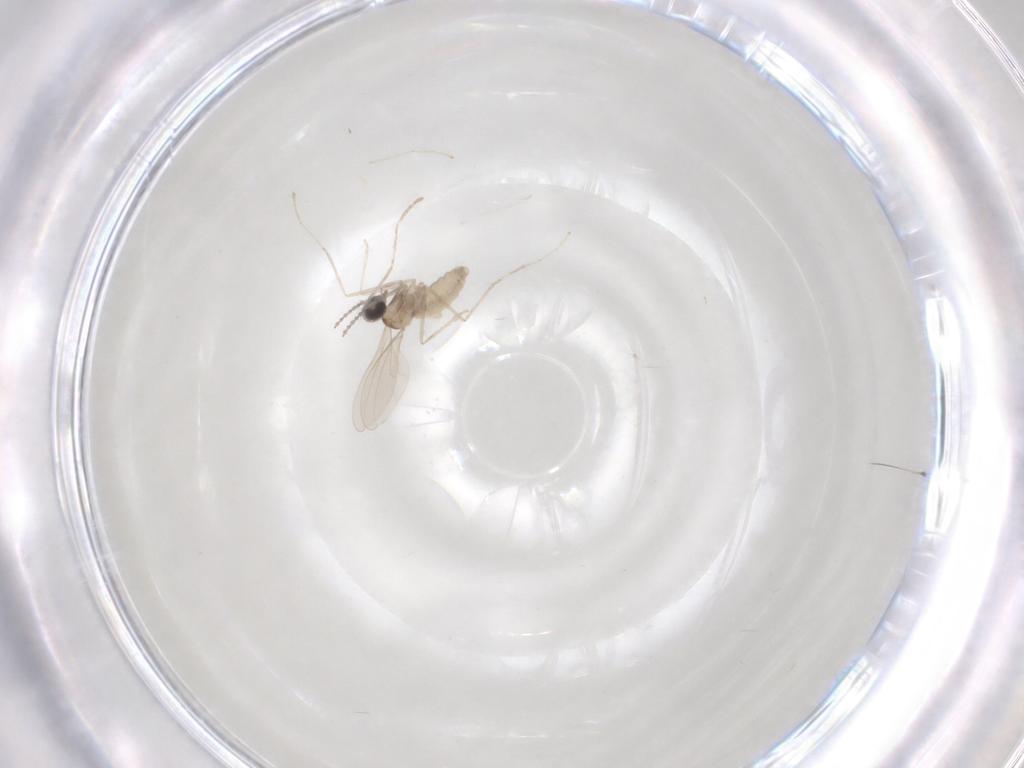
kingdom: Animalia
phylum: Arthropoda
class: Insecta
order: Diptera
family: Cecidomyiidae
